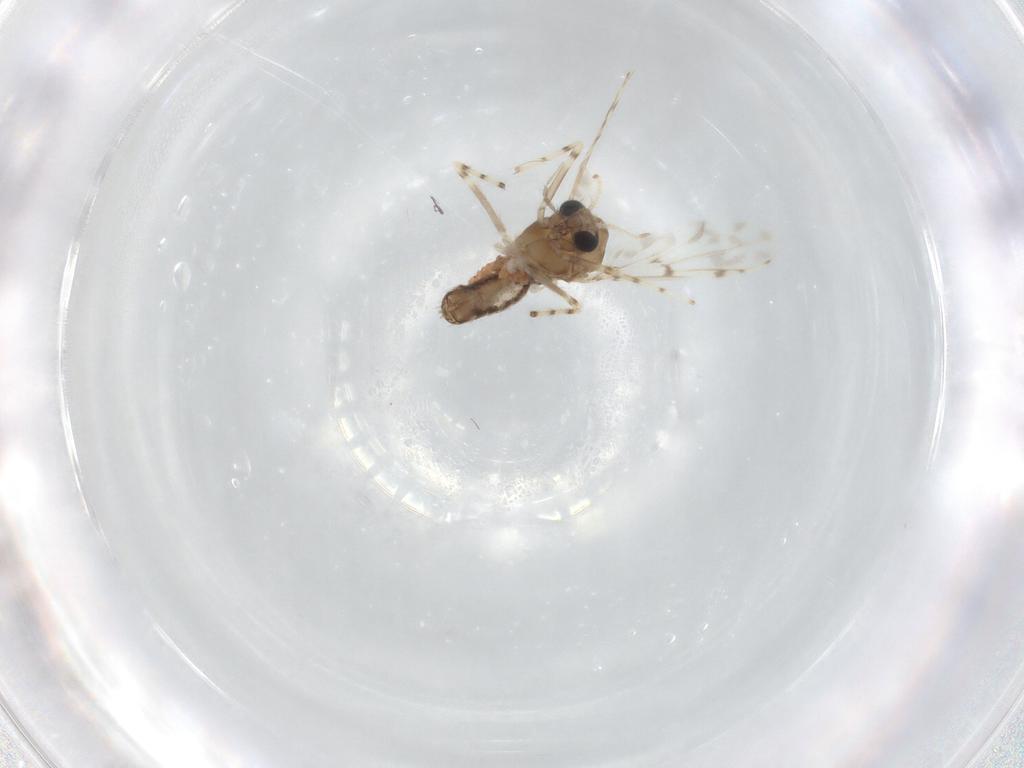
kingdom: Animalia
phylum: Arthropoda
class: Insecta
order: Diptera
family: Chironomidae
